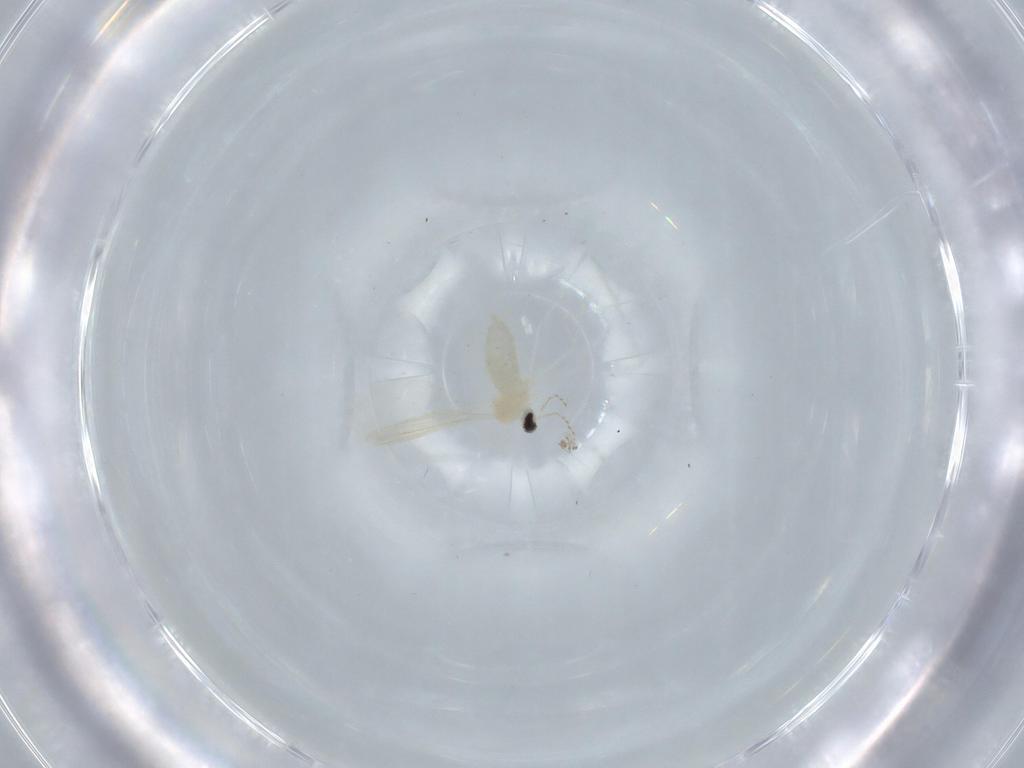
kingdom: Animalia
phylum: Arthropoda
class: Insecta
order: Diptera
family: Cecidomyiidae
